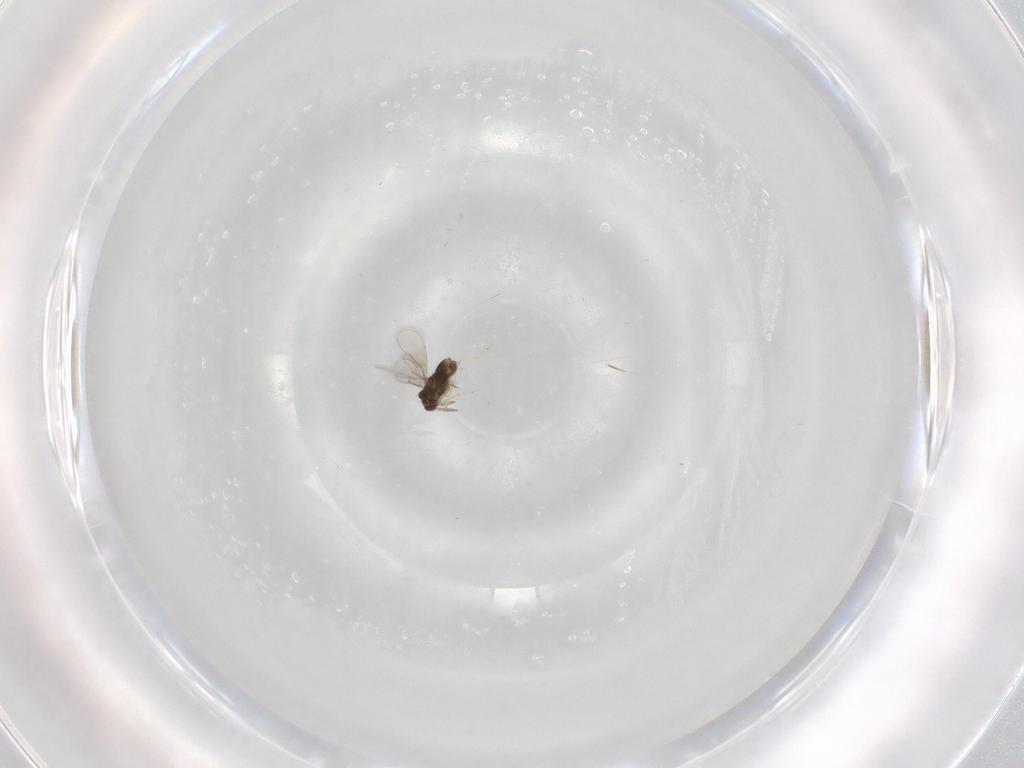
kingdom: Animalia
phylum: Arthropoda
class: Insecta
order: Hymenoptera
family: Aphelinidae
